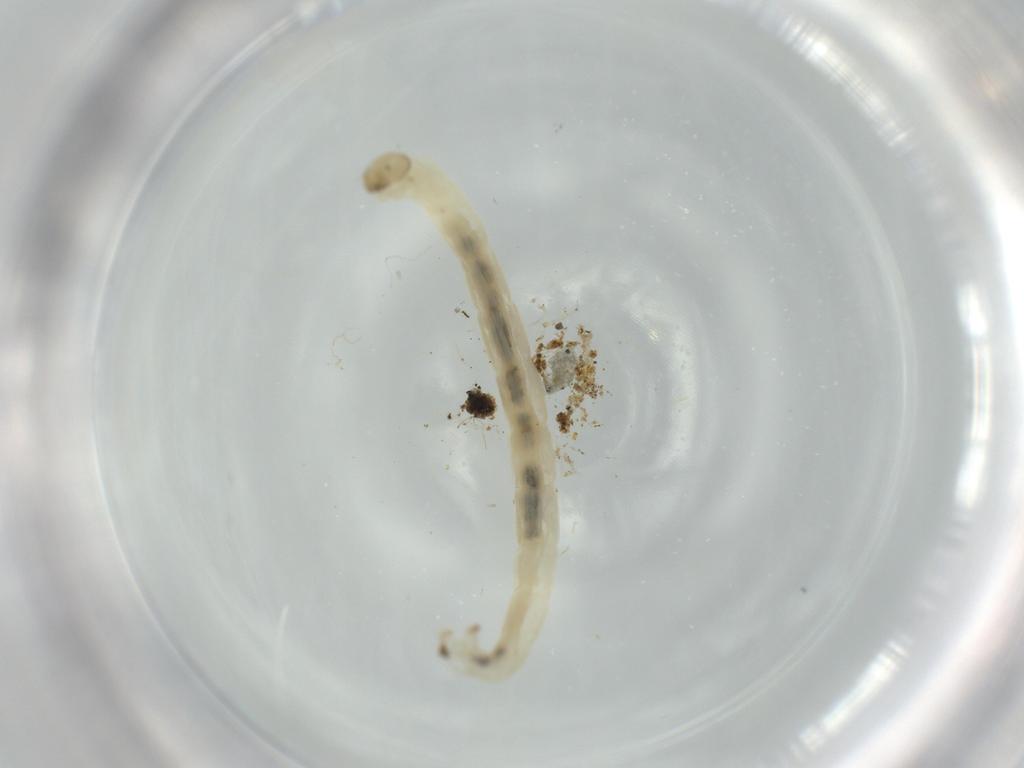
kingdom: Animalia
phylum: Arthropoda
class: Insecta
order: Diptera
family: Chironomidae
